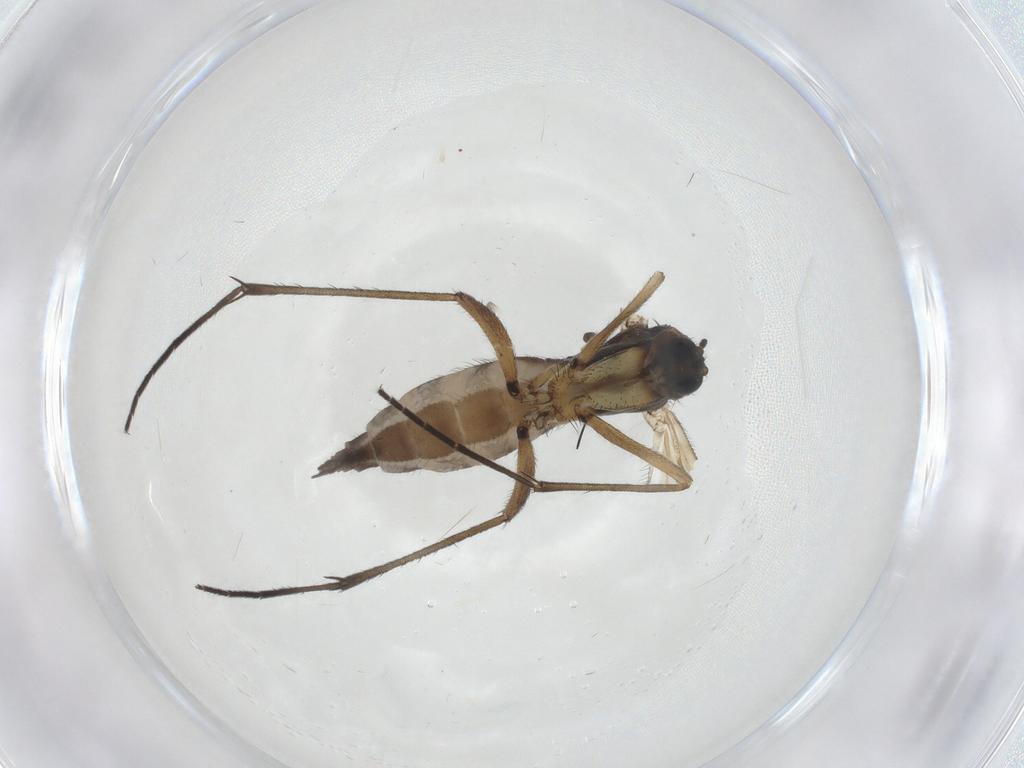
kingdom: Animalia
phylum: Arthropoda
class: Insecta
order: Diptera
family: Sciaridae
